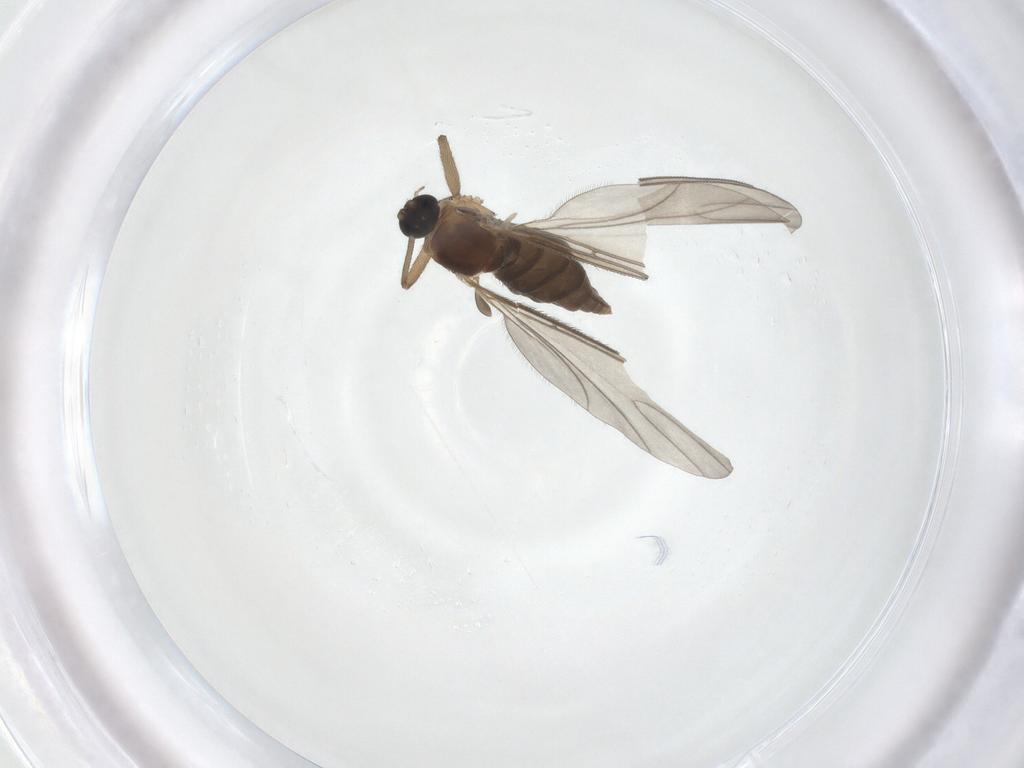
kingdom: Animalia
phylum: Arthropoda
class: Insecta
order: Diptera
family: Sciaridae
